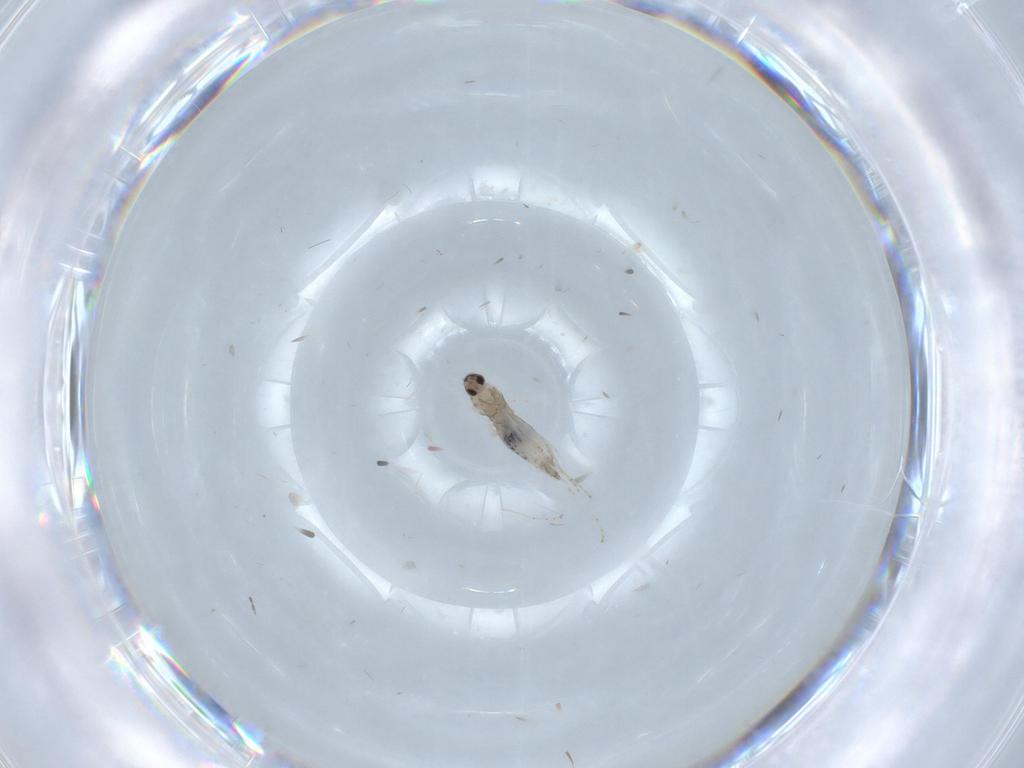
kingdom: Animalia
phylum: Arthropoda
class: Insecta
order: Diptera
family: Cecidomyiidae
